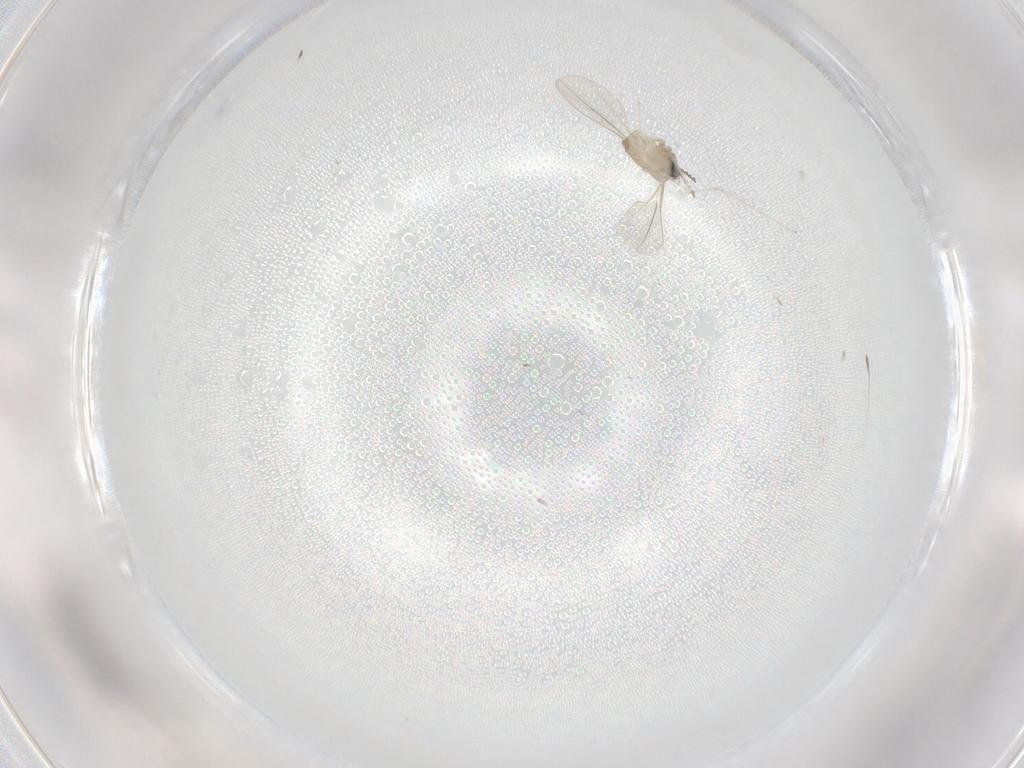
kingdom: Animalia
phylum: Arthropoda
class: Insecta
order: Diptera
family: Cecidomyiidae
